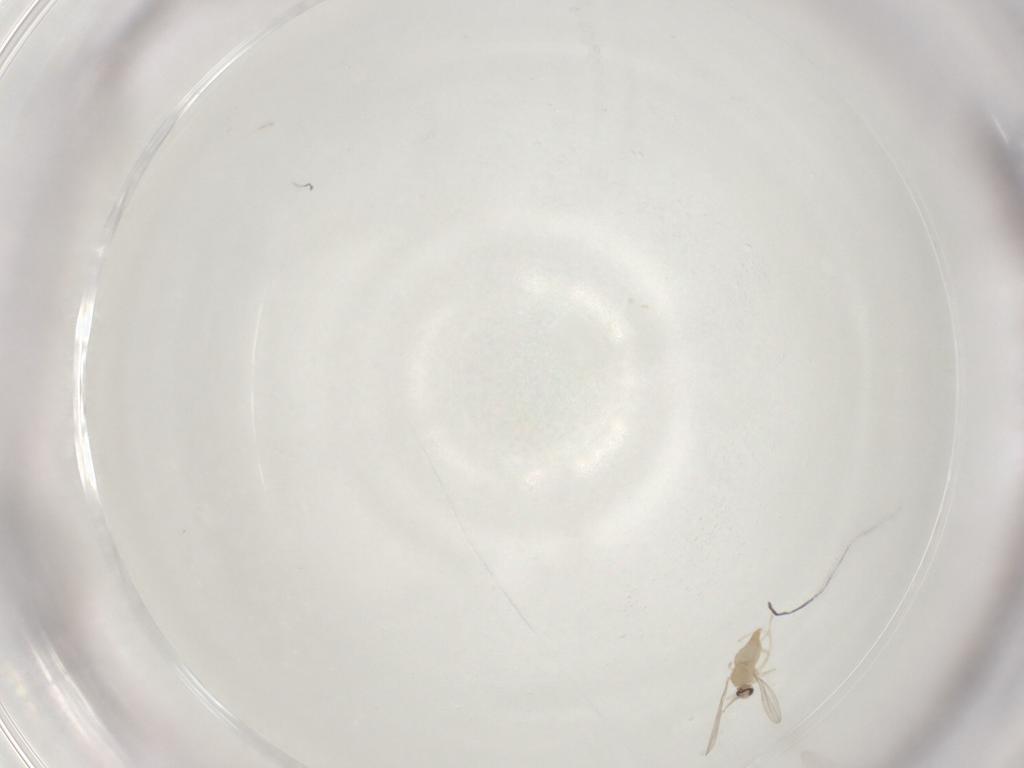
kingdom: Animalia
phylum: Arthropoda
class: Insecta
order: Diptera
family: Cecidomyiidae
